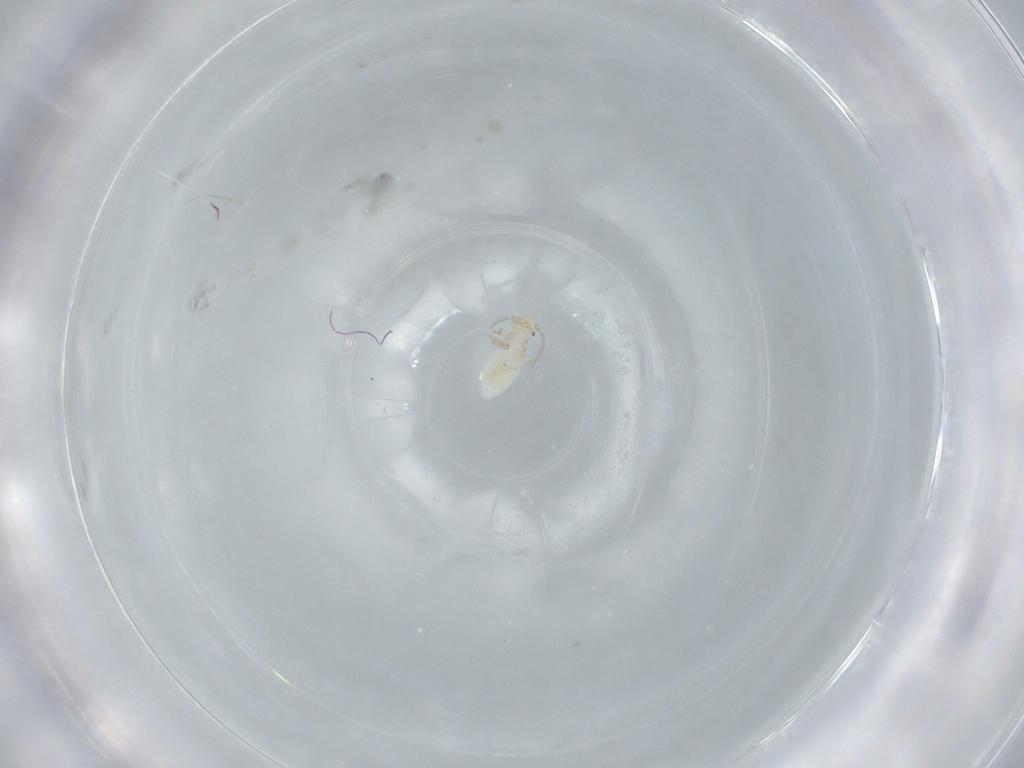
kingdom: Animalia
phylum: Arthropoda
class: Insecta
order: Psocodea
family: Caeciliusidae
